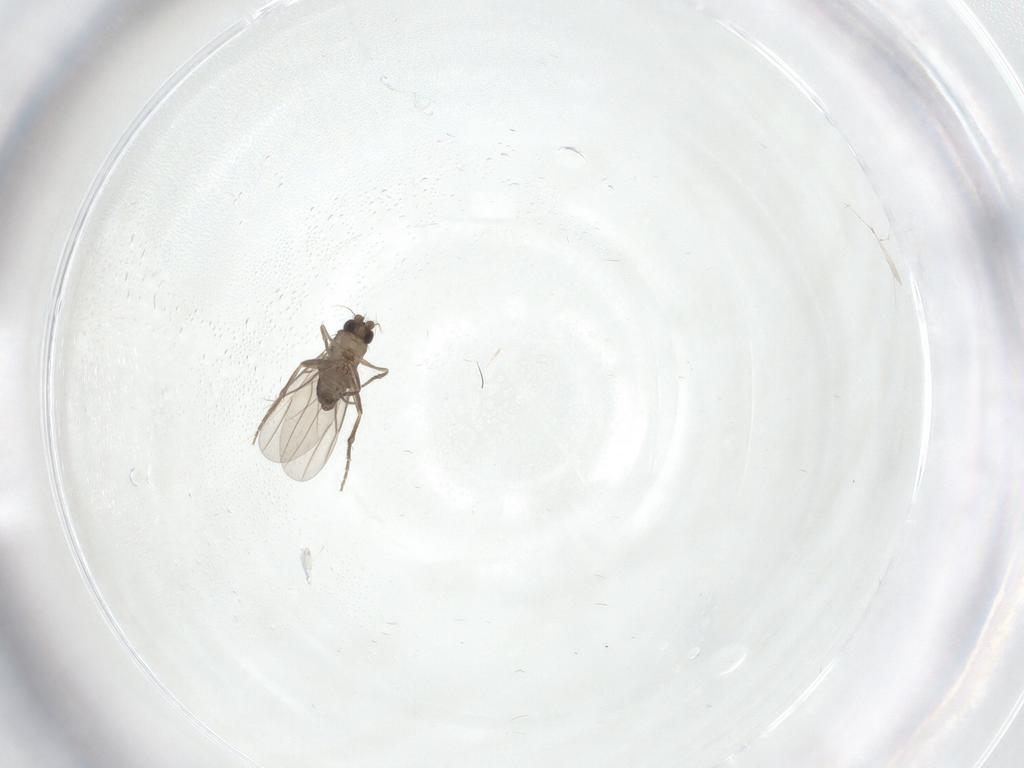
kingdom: Animalia
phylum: Arthropoda
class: Insecta
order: Diptera
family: Phoridae
